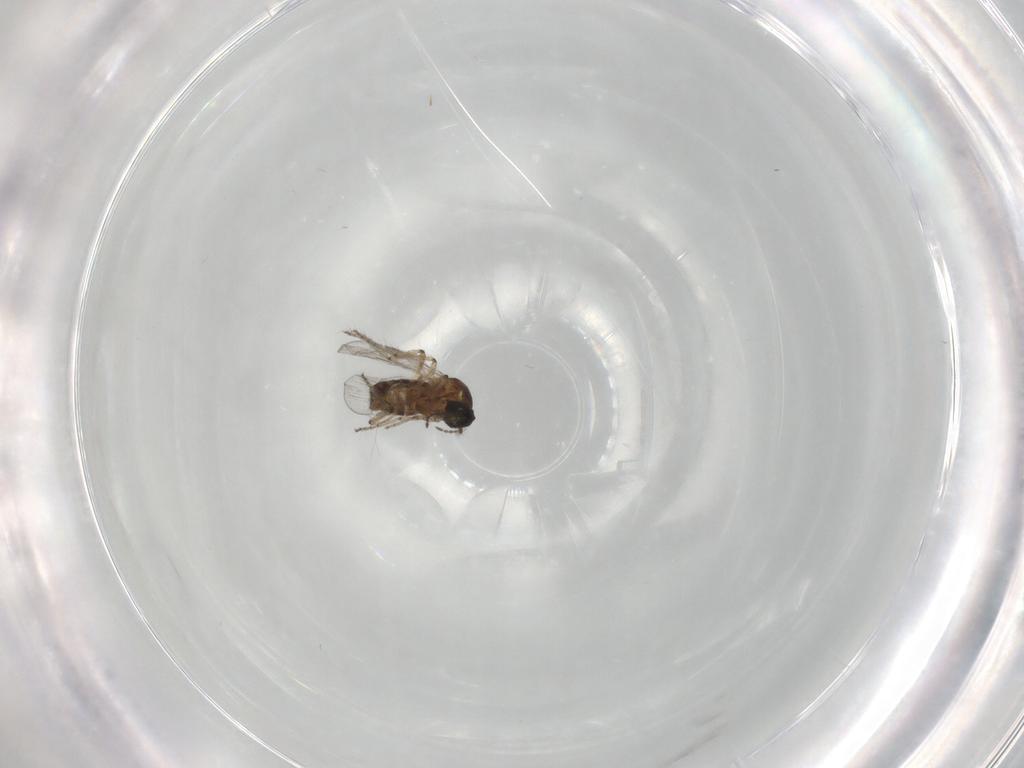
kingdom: Animalia
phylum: Arthropoda
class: Insecta
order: Diptera
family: Ceratopogonidae
